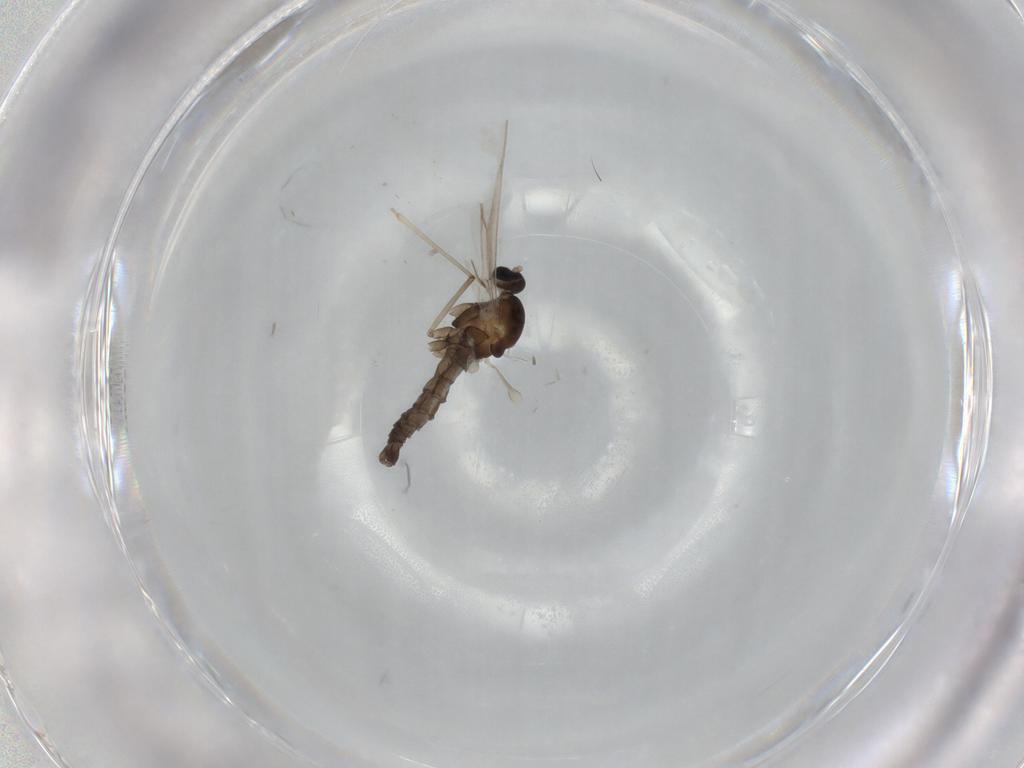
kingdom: Animalia
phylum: Arthropoda
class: Insecta
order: Diptera
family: Cecidomyiidae
